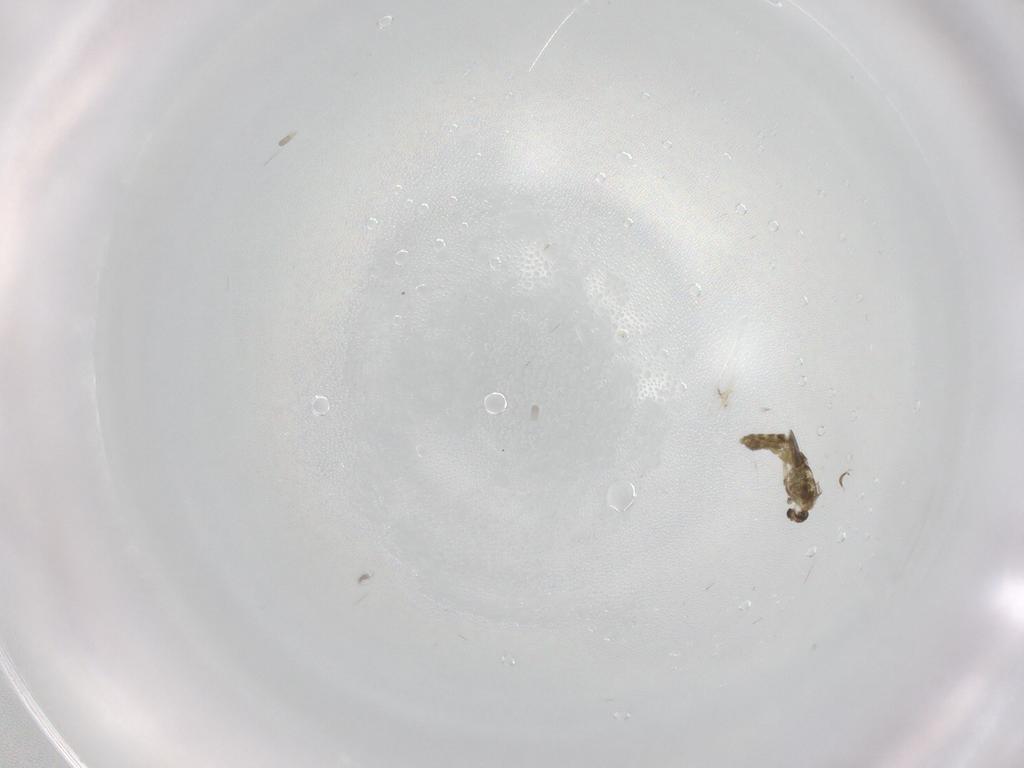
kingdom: Animalia
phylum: Arthropoda
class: Insecta
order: Diptera
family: Chironomidae
